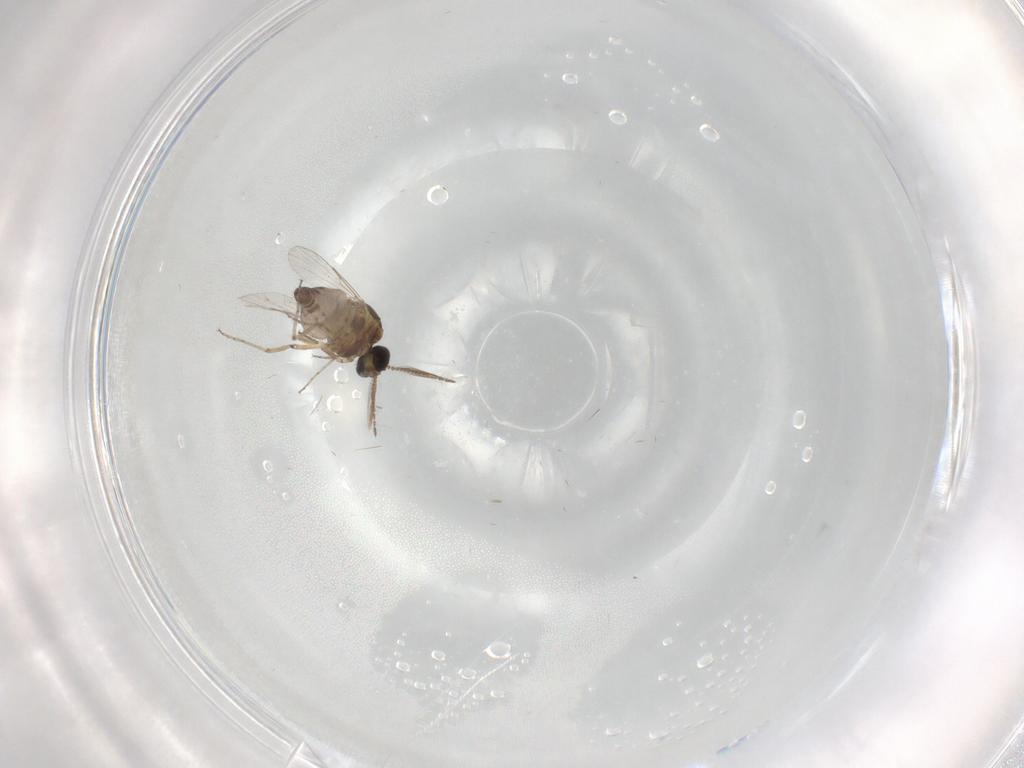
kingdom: Animalia
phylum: Arthropoda
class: Insecta
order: Diptera
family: Ceratopogonidae
